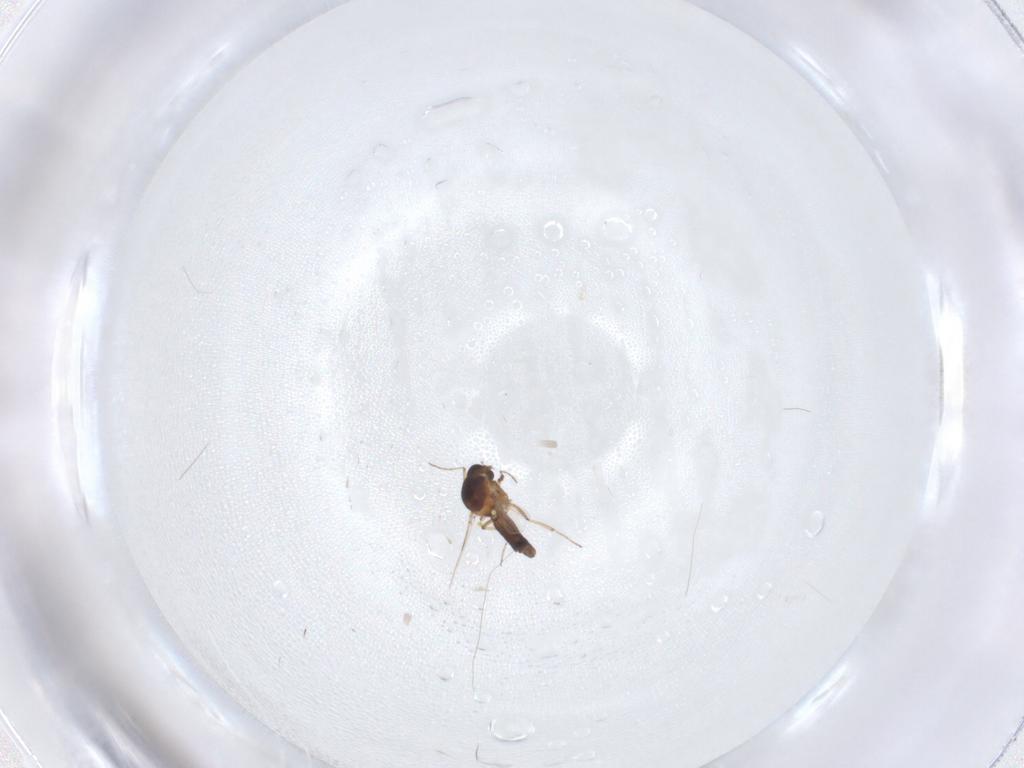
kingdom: Animalia
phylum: Arthropoda
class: Insecta
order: Diptera
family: Ceratopogonidae
